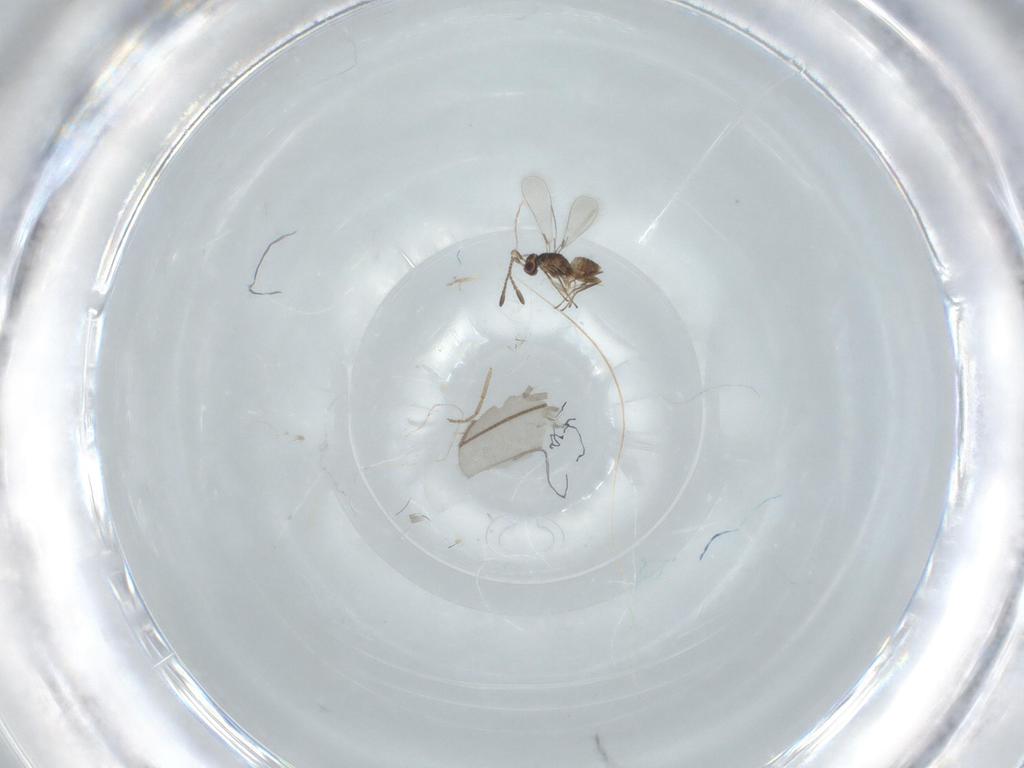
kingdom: Animalia
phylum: Arthropoda
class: Insecta
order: Hymenoptera
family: Mymaridae
